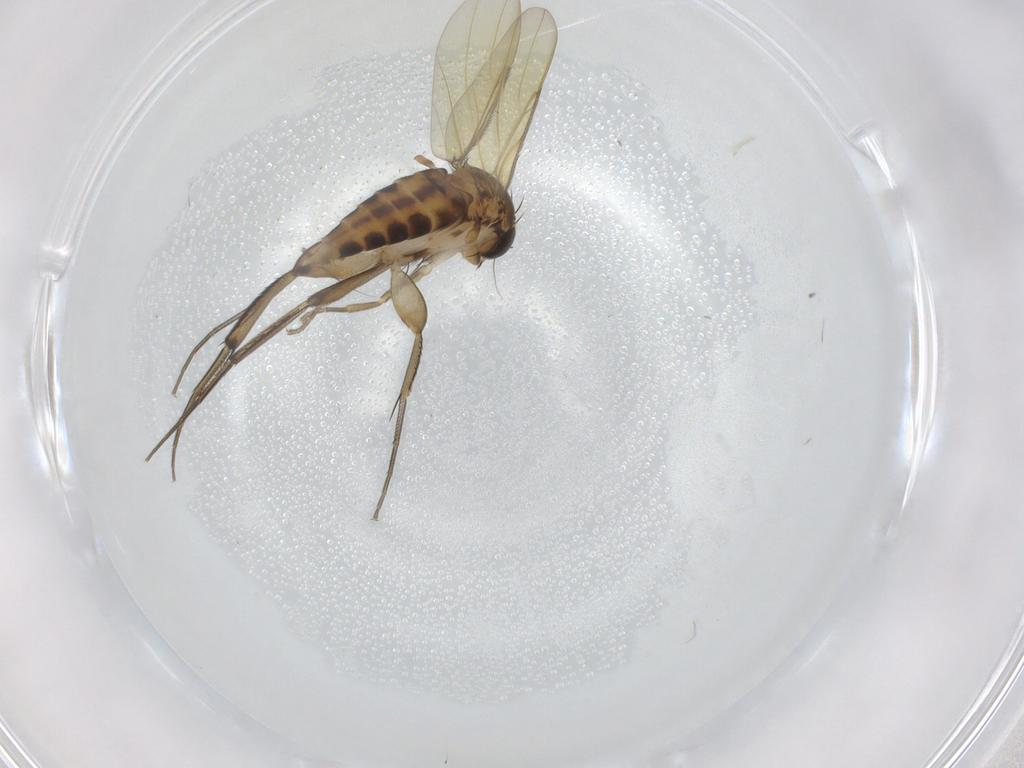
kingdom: Animalia
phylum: Arthropoda
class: Insecta
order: Diptera
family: Phoridae
